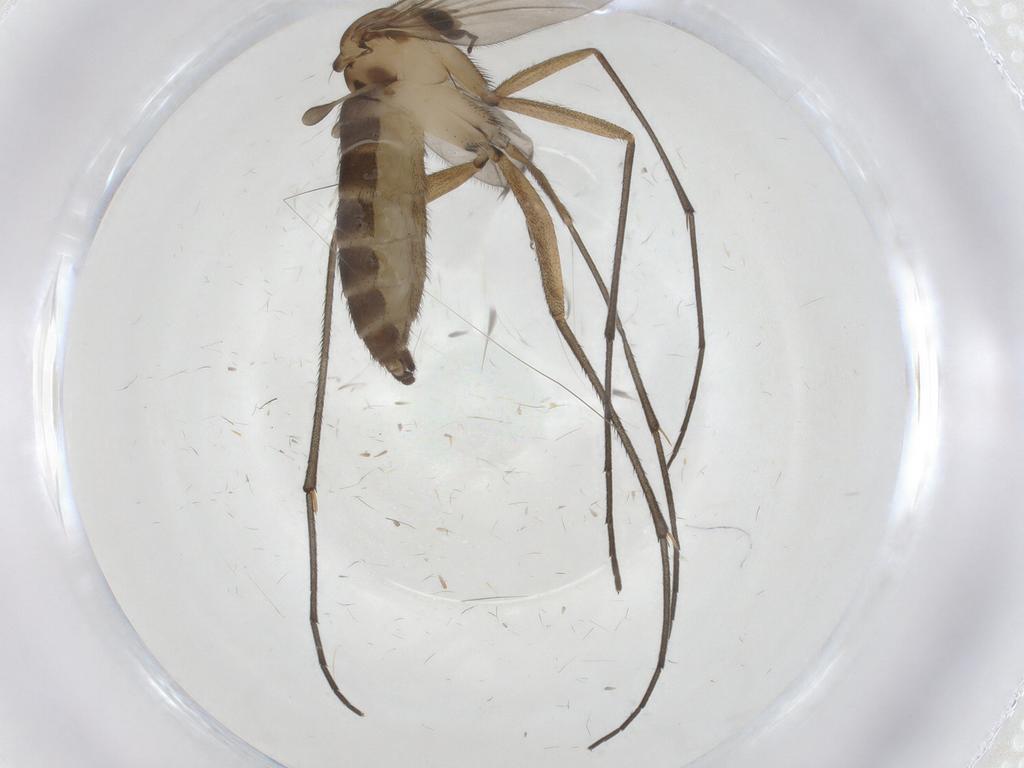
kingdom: Animalia
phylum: Arthropoda
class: Insecta
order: Diptera
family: Sciaridae
